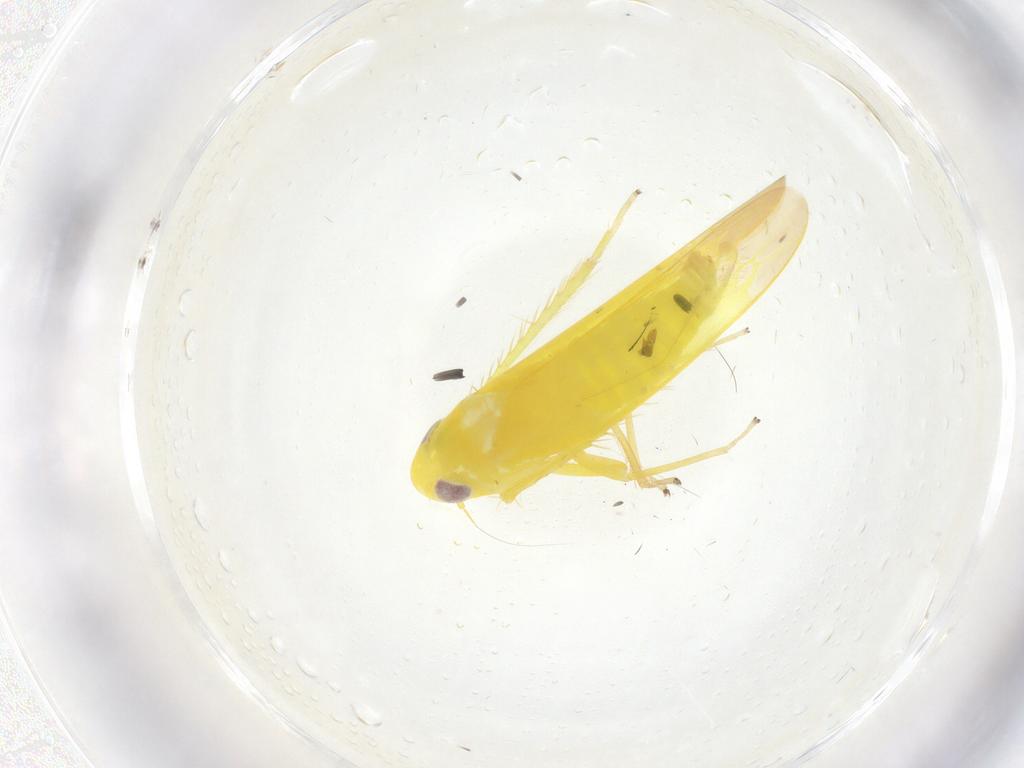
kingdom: Animalia
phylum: Arthropoda
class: Insecta
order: Hemiptera
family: Cicadellidae
